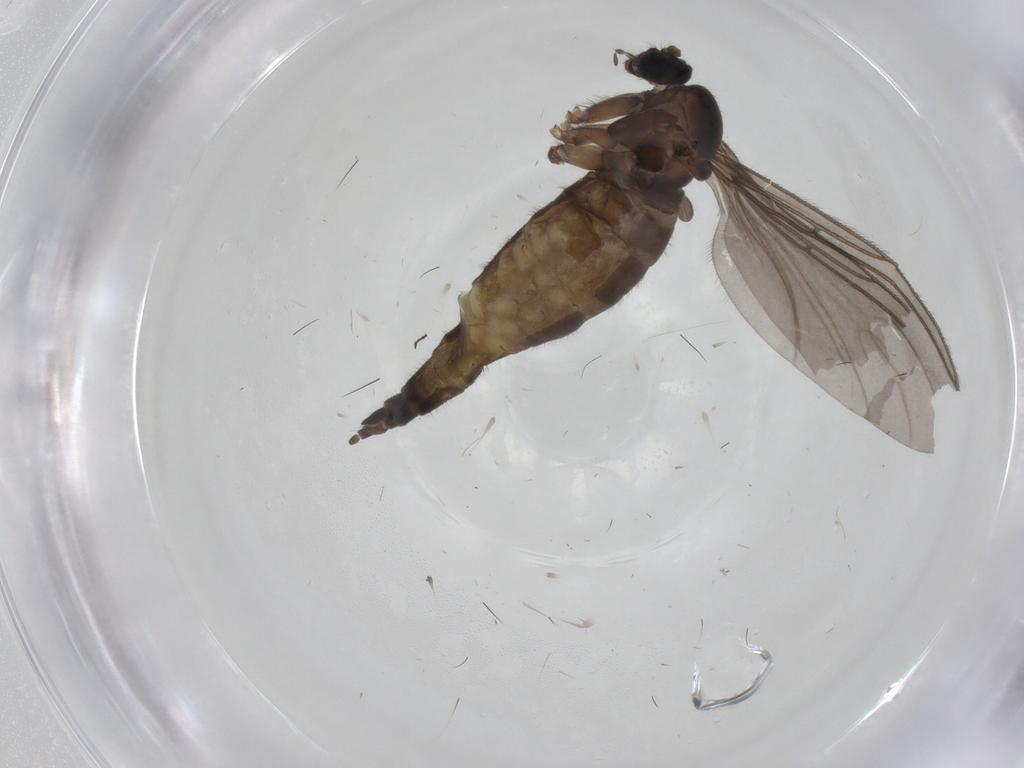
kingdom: Animalia
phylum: Arthropoda
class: Insecta
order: Diptera
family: Sciaridae
